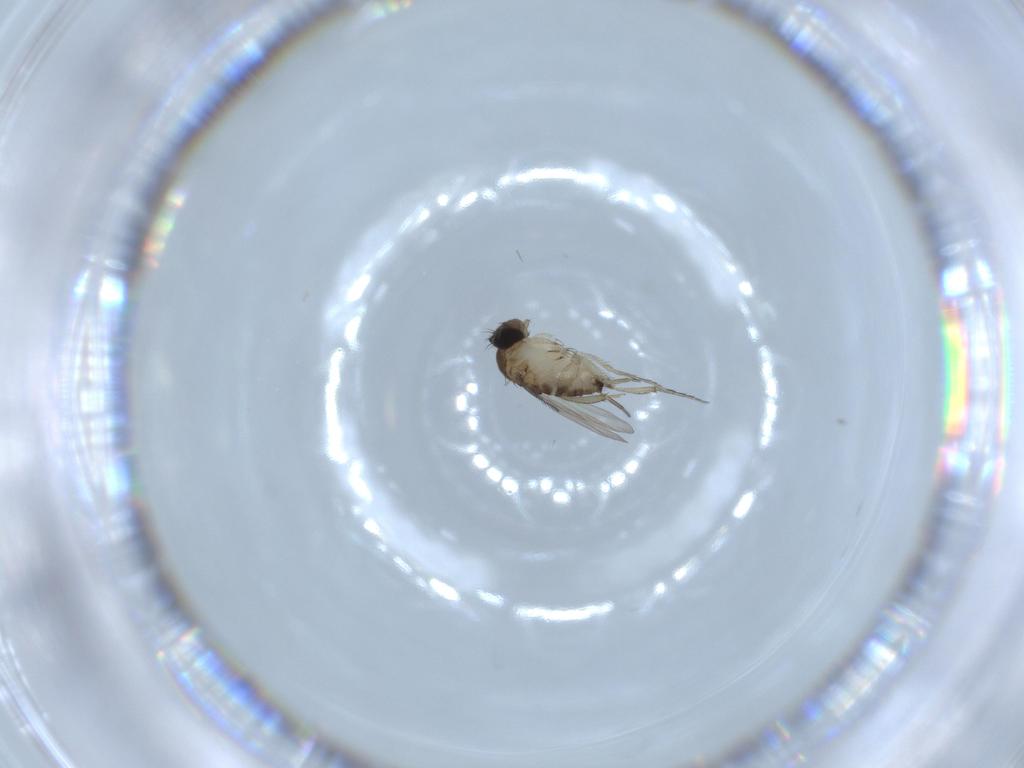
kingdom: Animalia
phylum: Arthropoda
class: Insecta
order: Diptera
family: Phoridae
